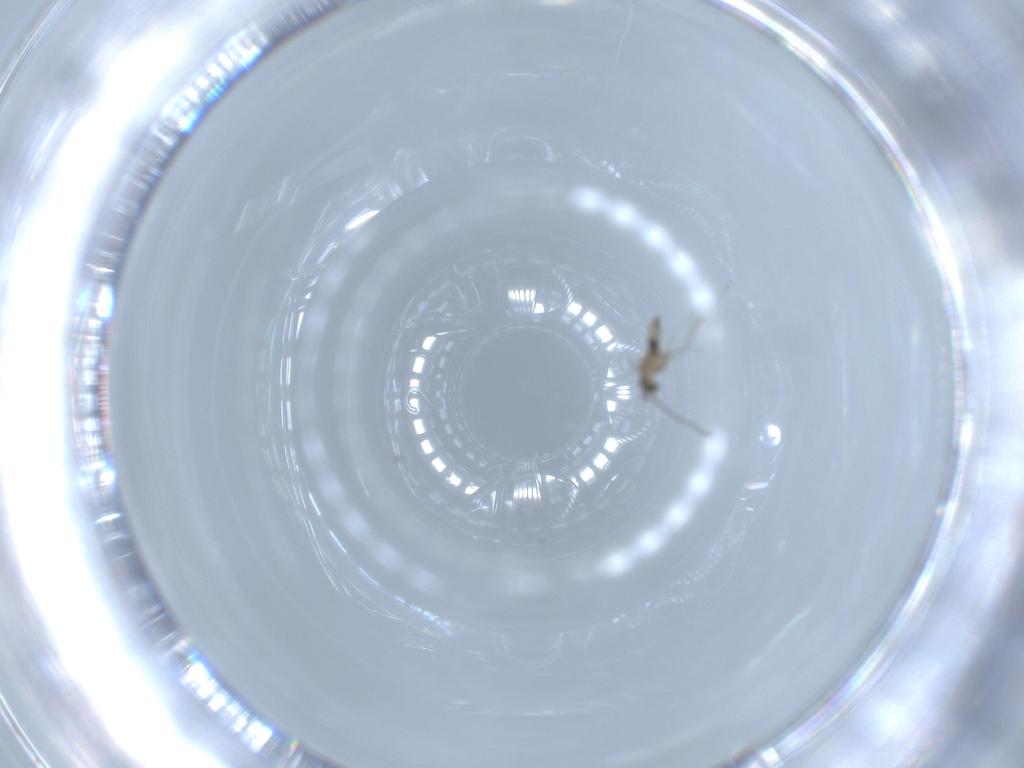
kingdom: Animalia
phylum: Arthropoda
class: Insecta
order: Diptera
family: Cecidomyiidae
